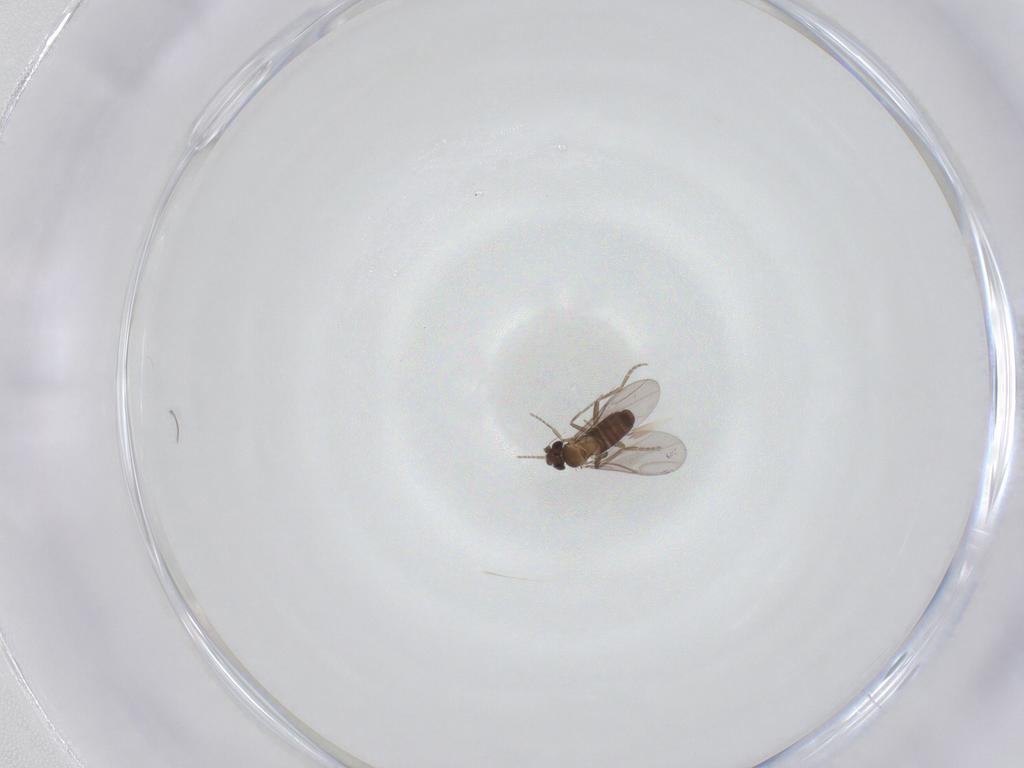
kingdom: Animalia
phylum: Arthropoda
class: Insecta
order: Diptera
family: Phoridae
